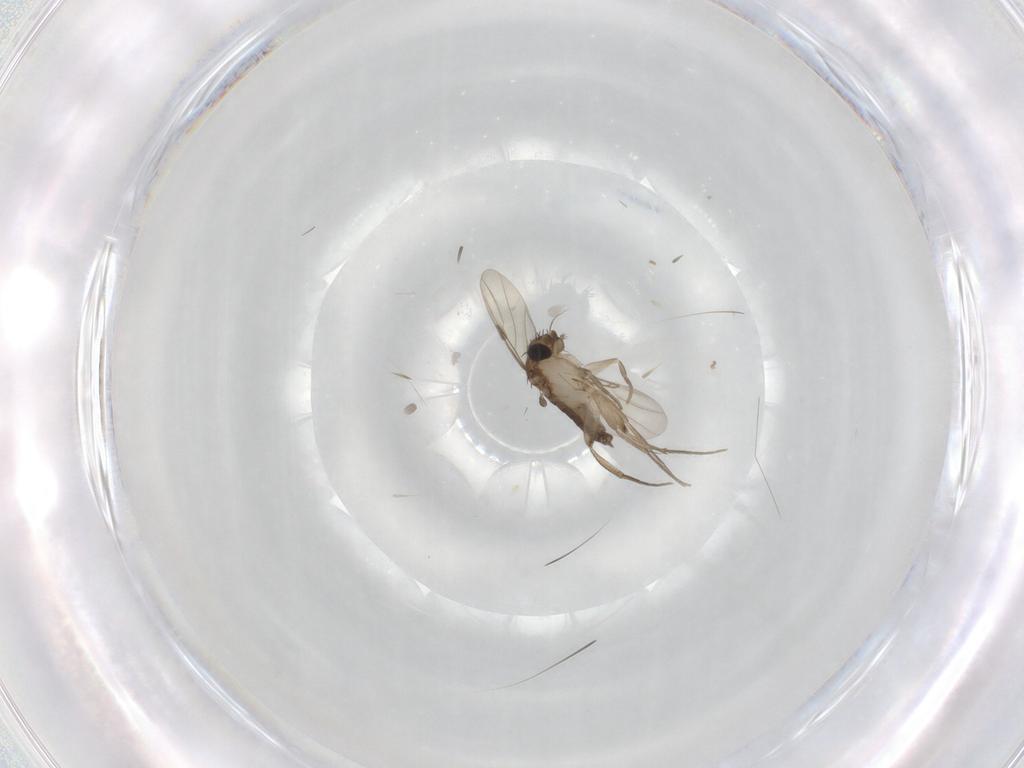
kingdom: Animalia
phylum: Arthropoda
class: Insecta
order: Diptera
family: Sciaridae
